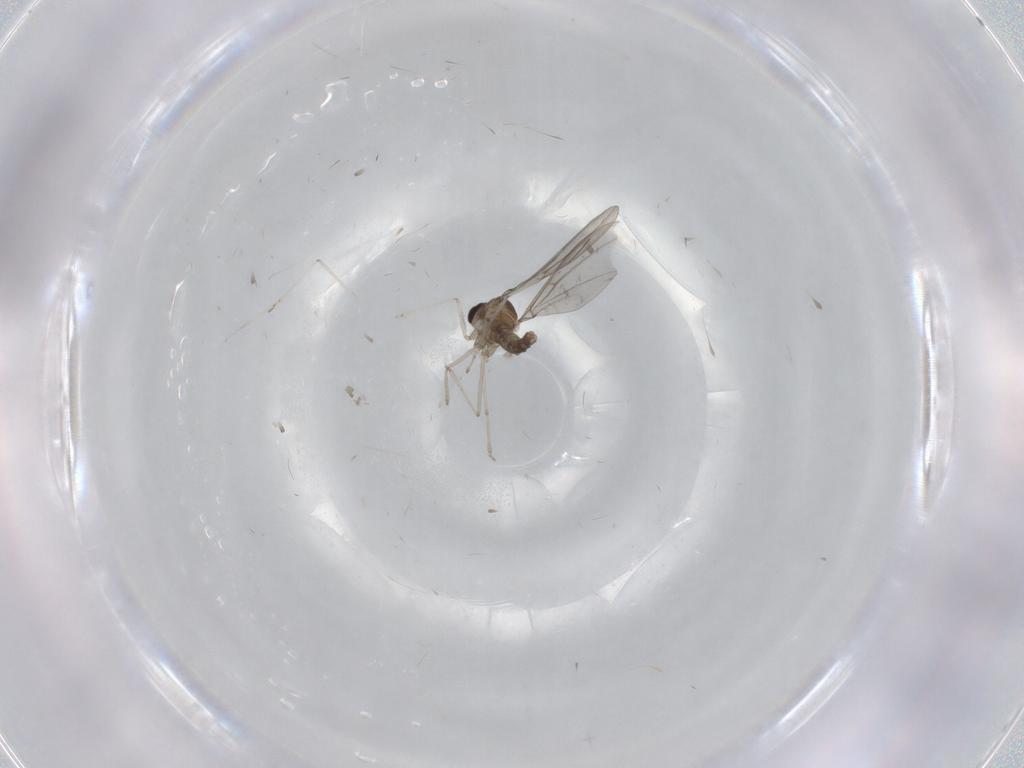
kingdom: Animalia
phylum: Arthropoda
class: Insecta
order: Diptera
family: Cecidomyiidae
